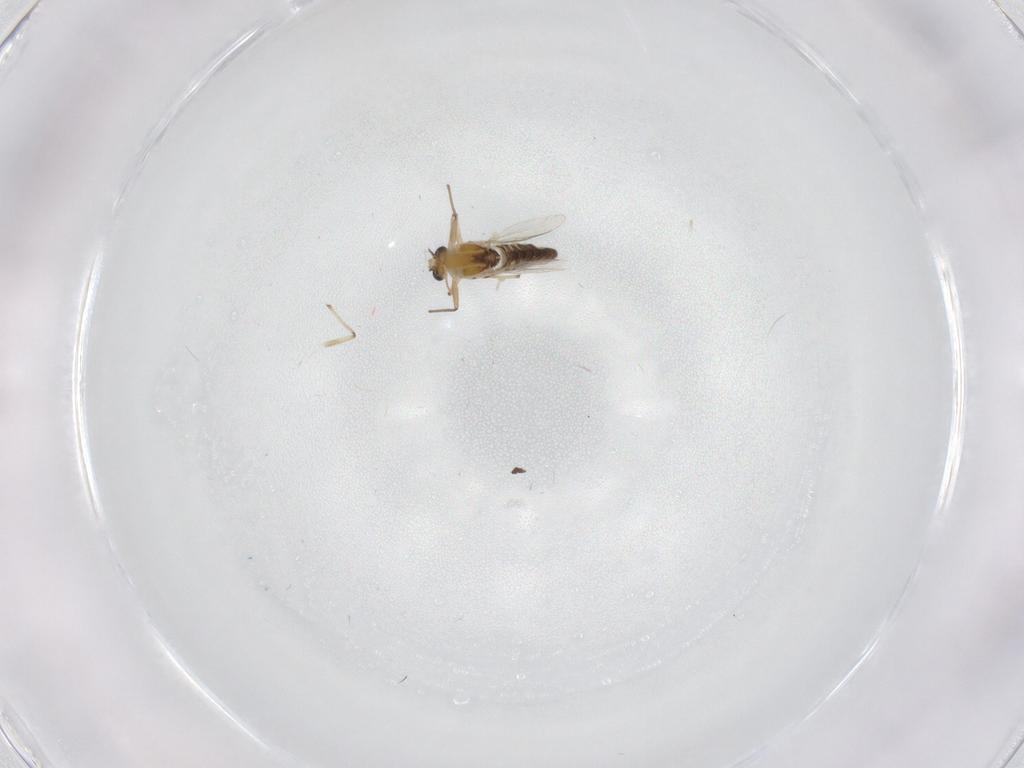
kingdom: Animalia
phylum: Arthropoda
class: Insecta
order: Diptera
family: Chironomidae
